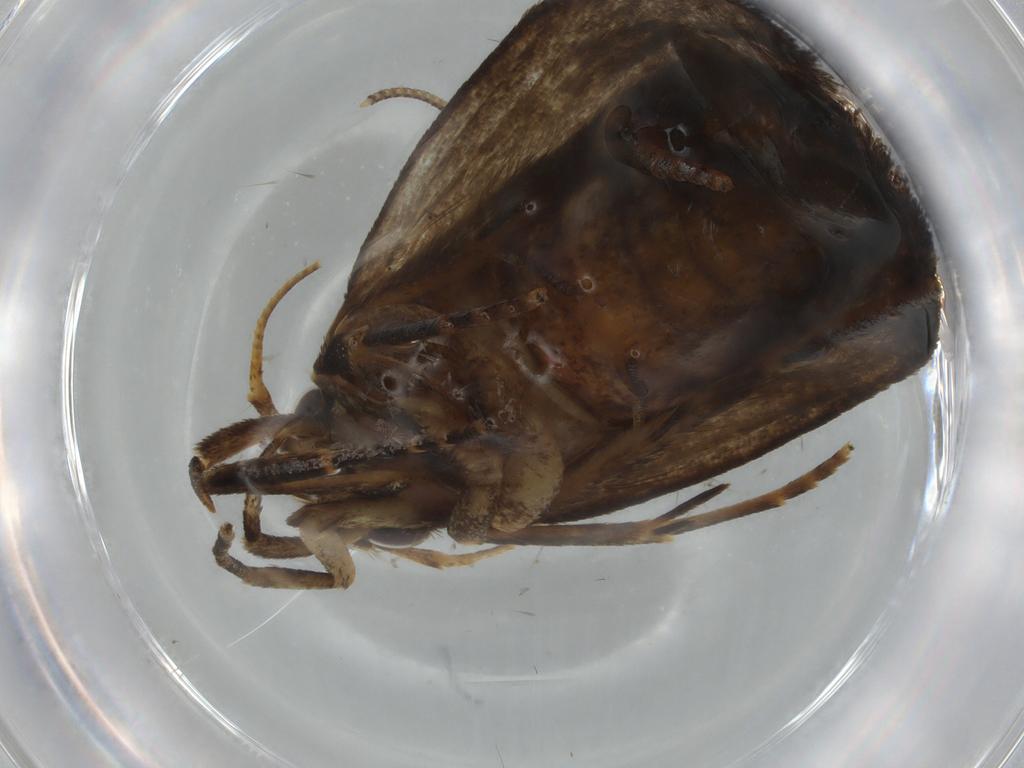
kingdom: Animalia
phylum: Arthropoda
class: Insecta
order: Lepidoptera
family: Autostichidae
